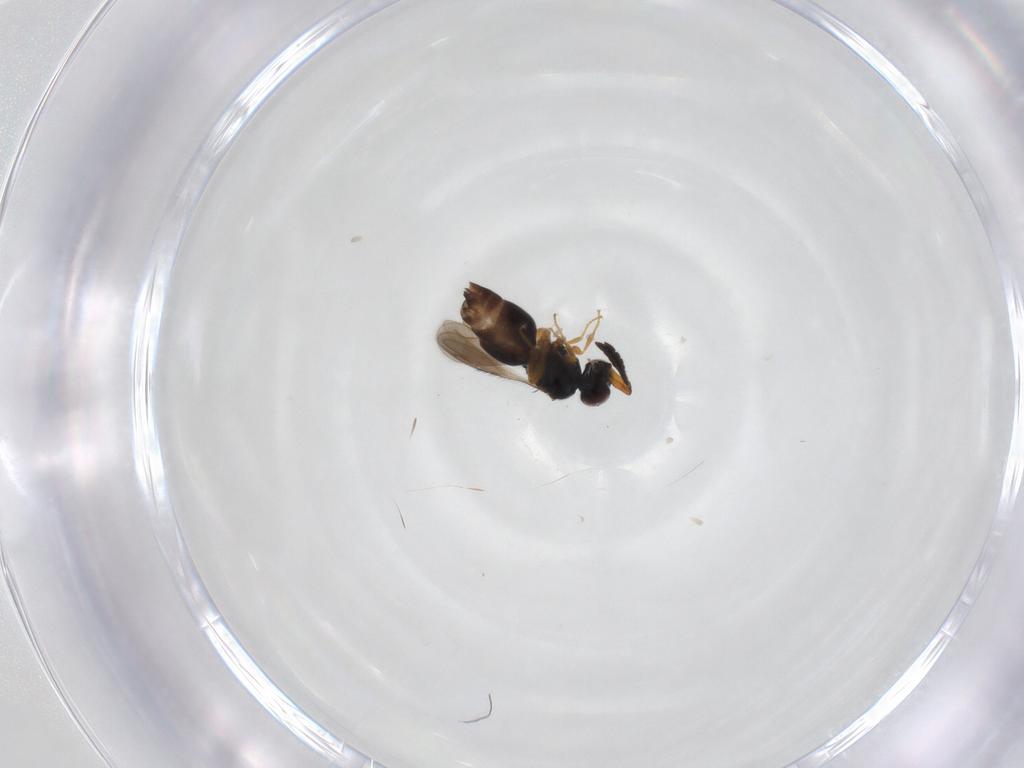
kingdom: Animalia
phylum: Arthropoda
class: Insecta
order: Hymenoptera
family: Ceraphronidae
